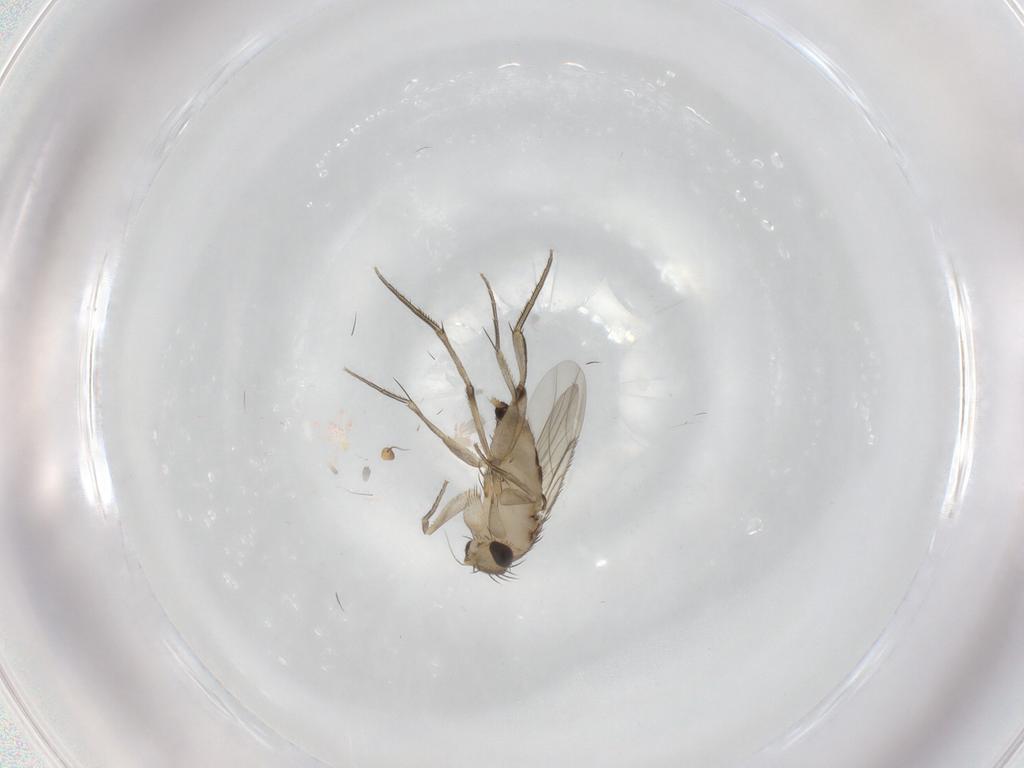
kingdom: Animalia
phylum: Arthropoda
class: Insecta
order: Diptera
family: Cecidomyiidae
